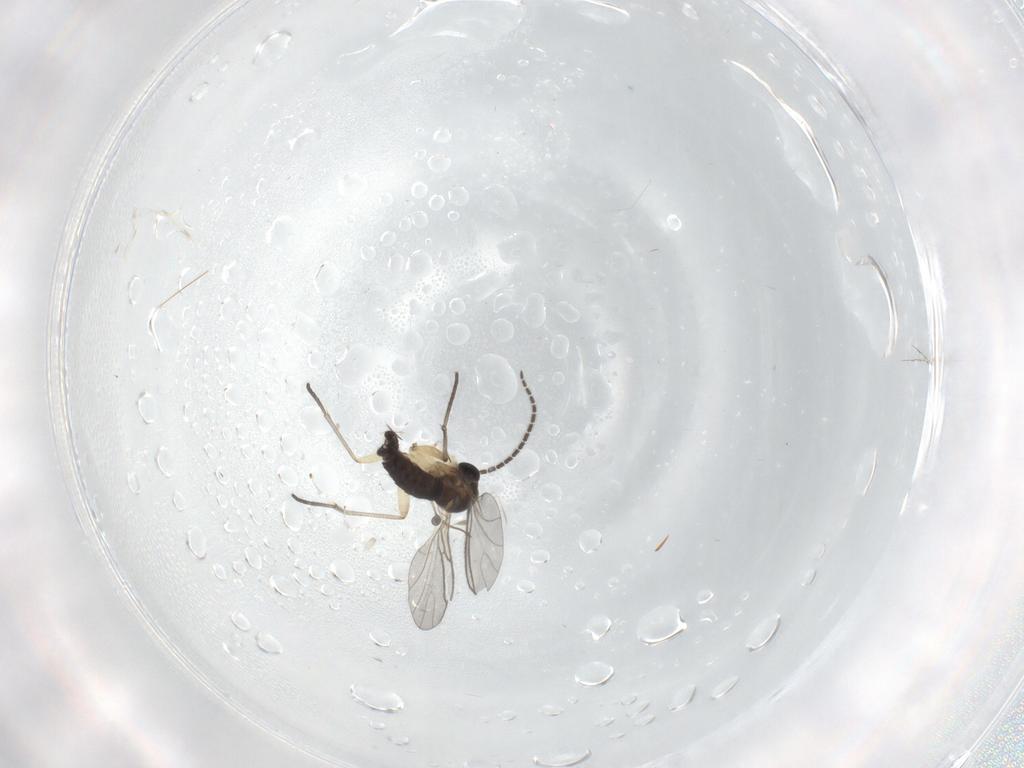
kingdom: Animalia
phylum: Arthropoda
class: Insecta
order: Diptera
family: Chironomidae
